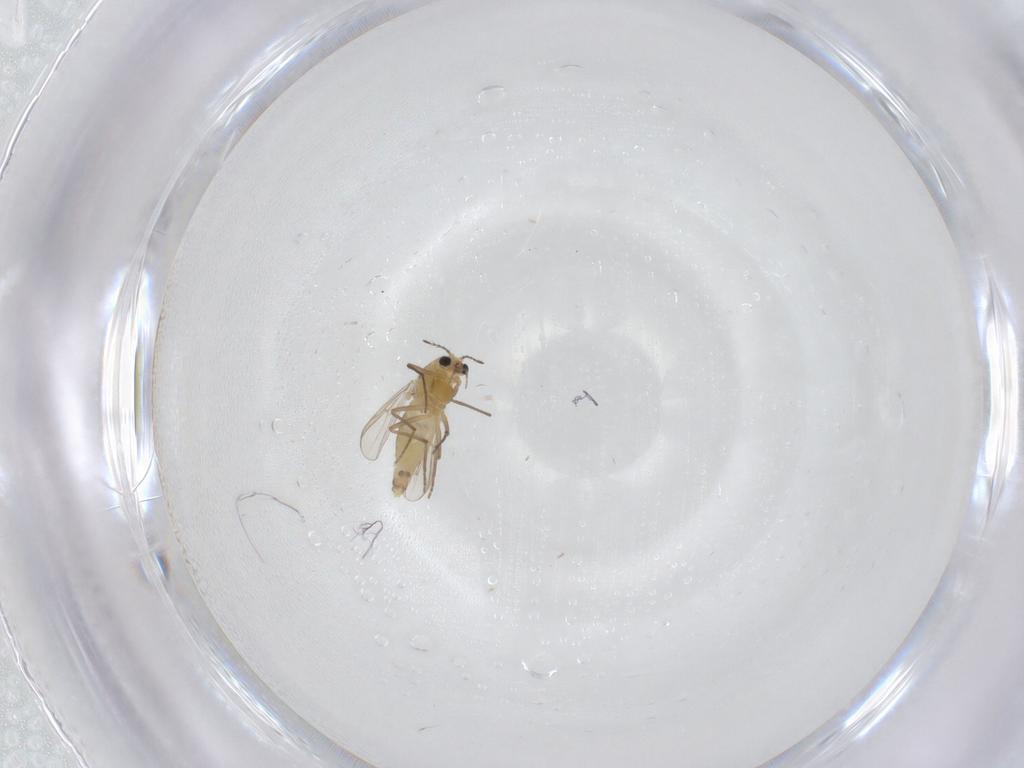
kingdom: Animalia
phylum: Arthropoda
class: Insecta
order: Diptera
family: Chironomidae
